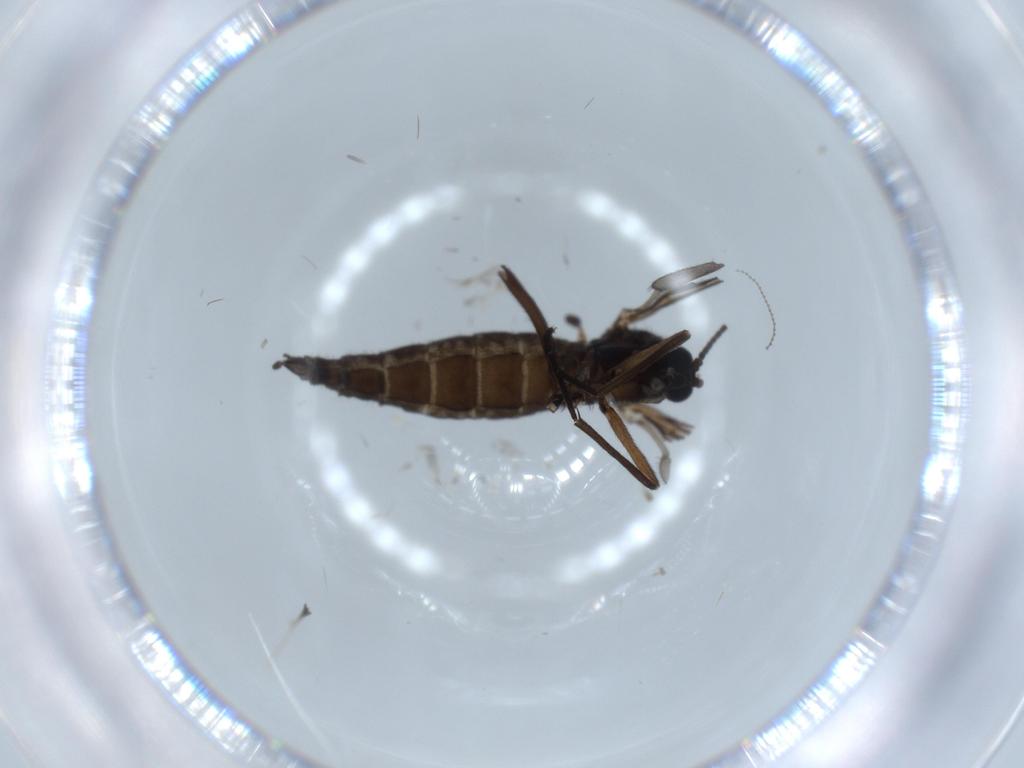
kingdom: Animalia
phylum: Arthropoda
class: Insecta
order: Diptera
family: Sciaridae
